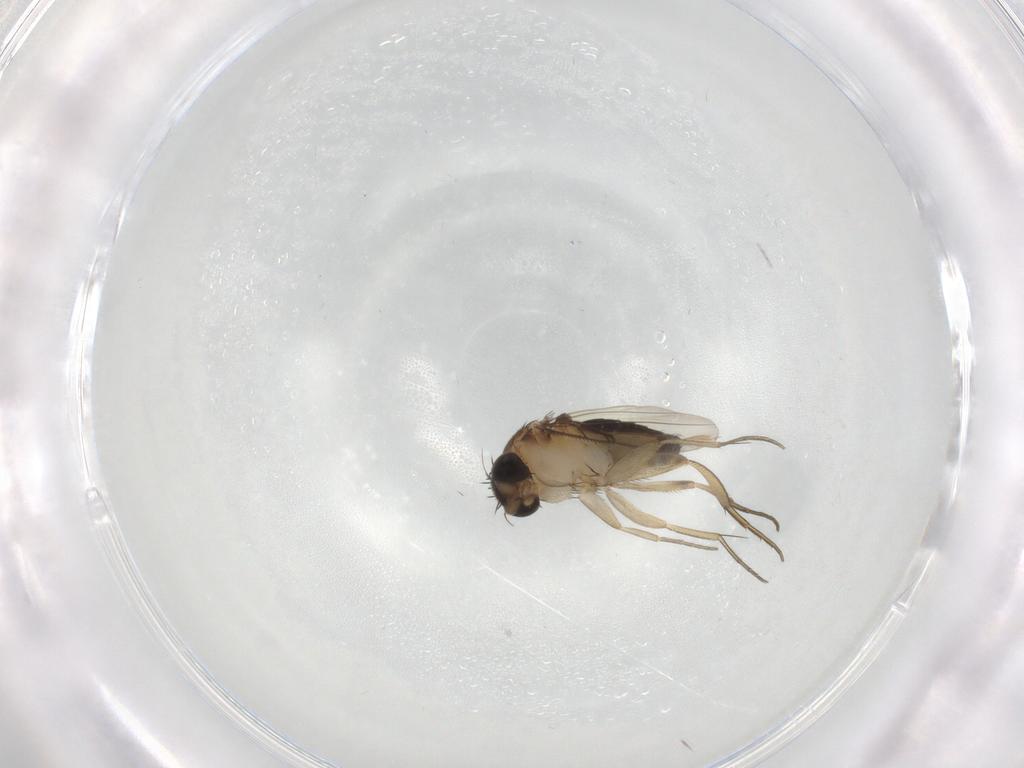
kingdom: Animalia
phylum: Arthropoda
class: Insecta
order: Diptera
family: Phoridae
